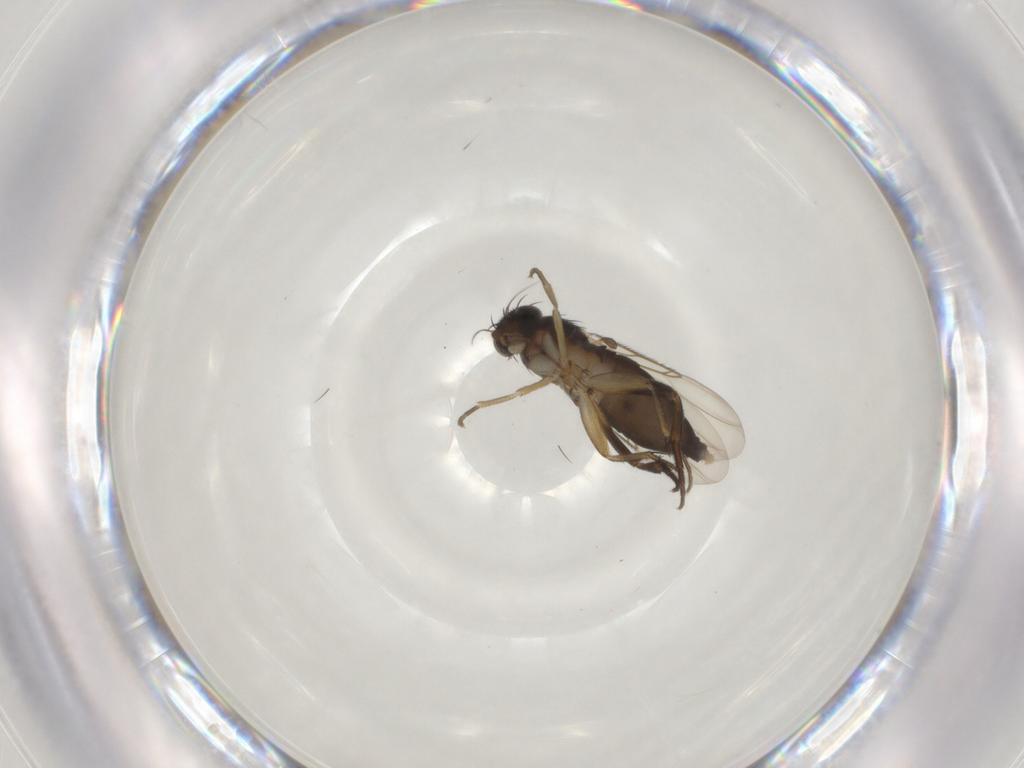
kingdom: Animalia
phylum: Arthropoda
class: Insecta
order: Diptera
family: Phoridae
